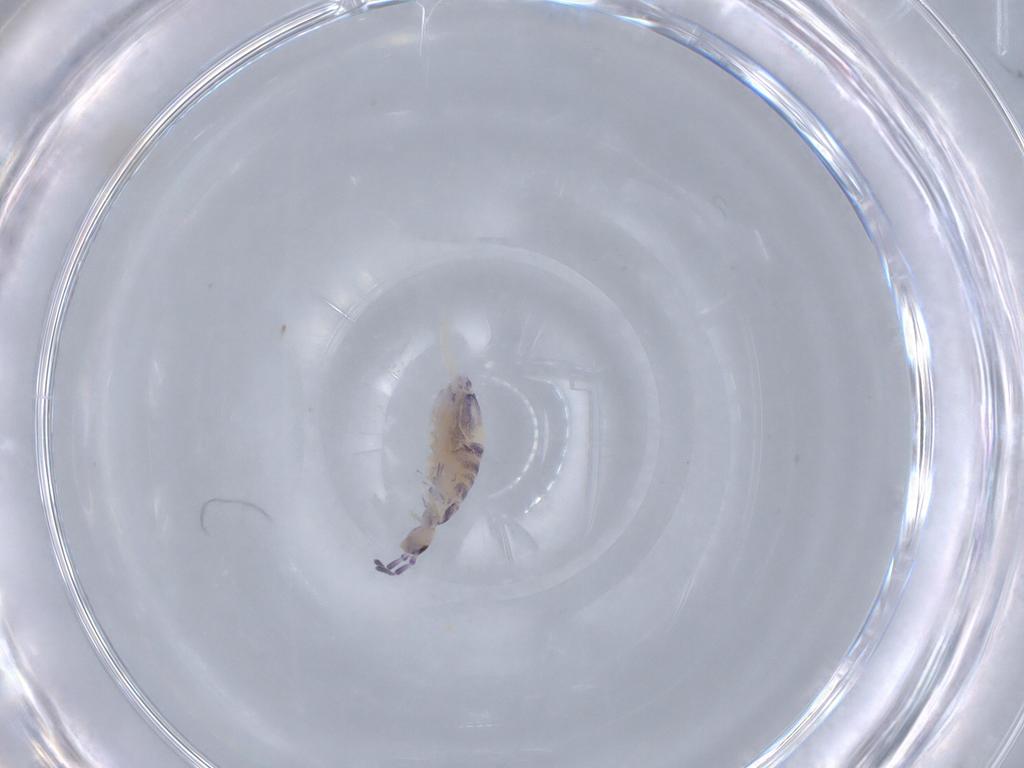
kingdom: Animalia
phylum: Arthropoda
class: Collembola
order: Poduromorpha
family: Hypogastruridae
